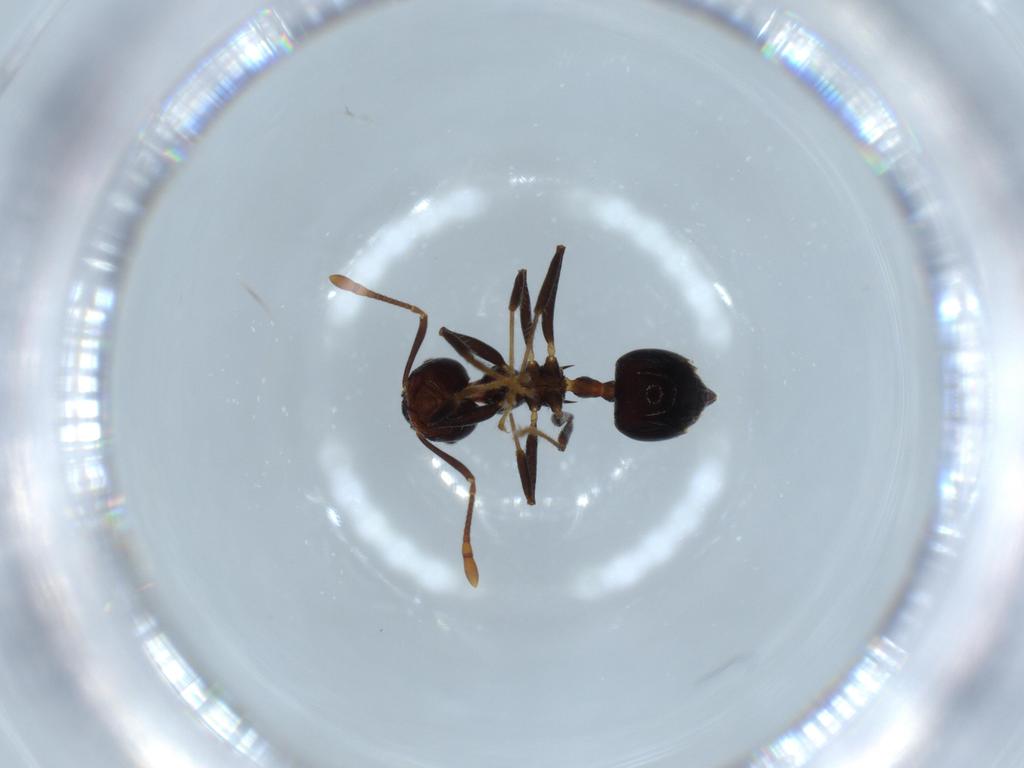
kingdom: Animalia
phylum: Arthropoda
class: Insecta
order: Hymenoptera
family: Formicidae
